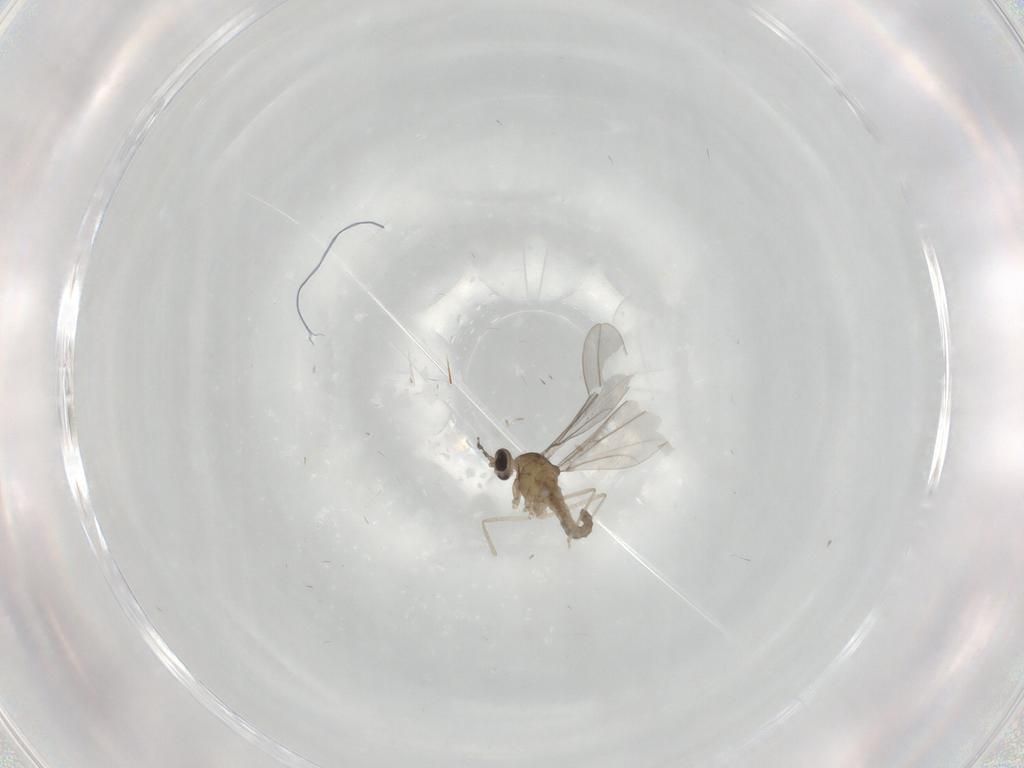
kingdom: Animalia
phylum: Arthropoda
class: Insecta
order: Diptera
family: Cecidomyiidae
